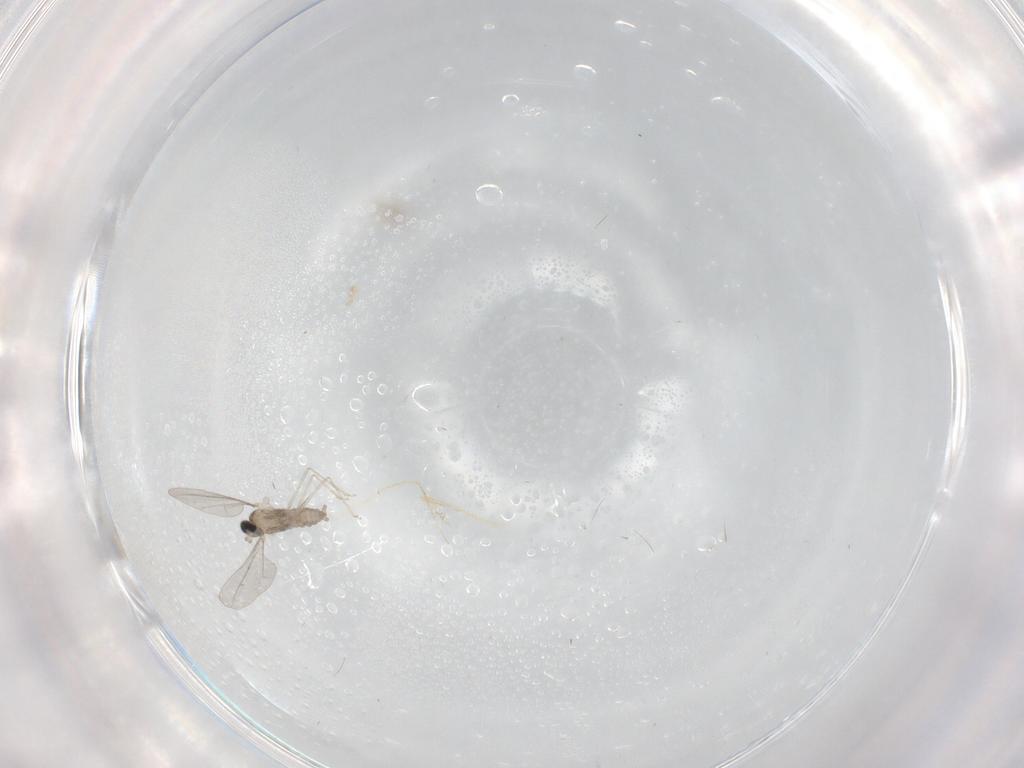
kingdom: Animalia
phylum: Arthropoda
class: Insecta
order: Diptera
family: Cecidomyiidae
